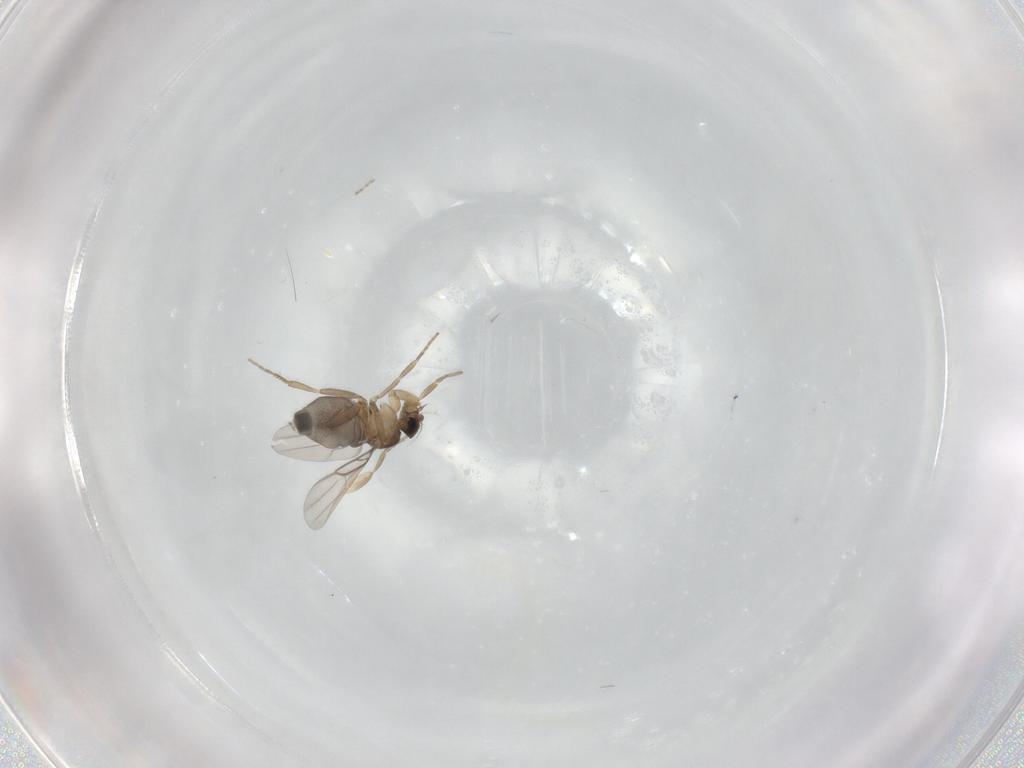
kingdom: Animalia
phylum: Arthropoda
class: Insecta
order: Diptera
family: Phoridae
